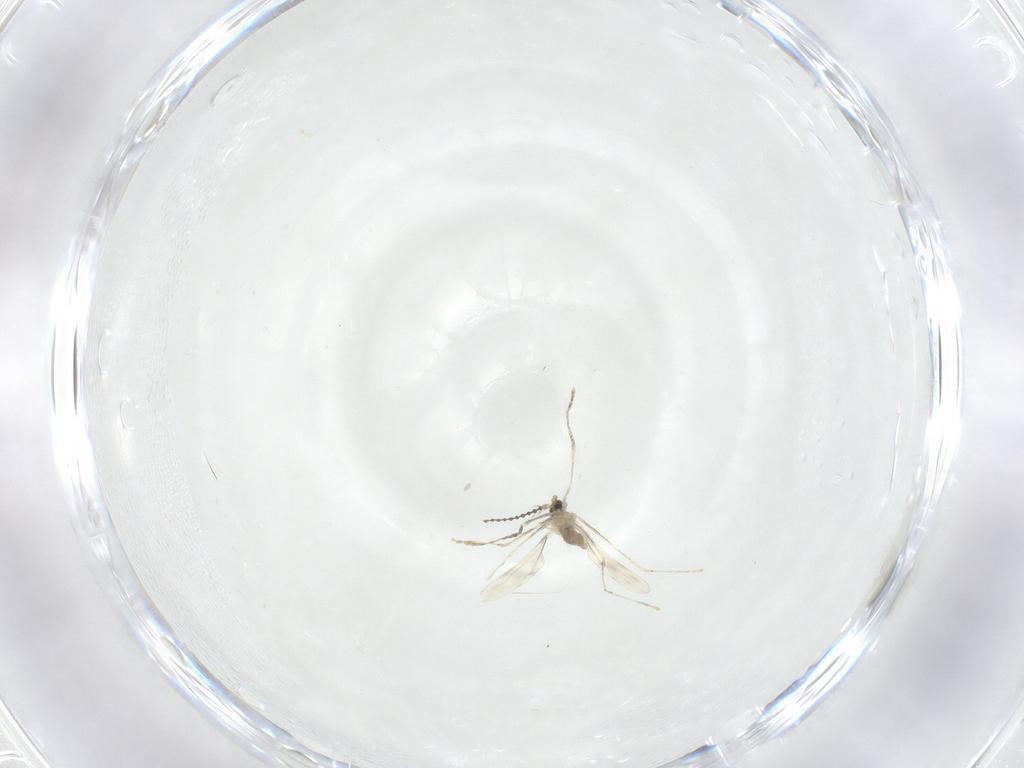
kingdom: Animalia
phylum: Arthropoda
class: Insecta
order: Diptera
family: Cecidomyiidae
